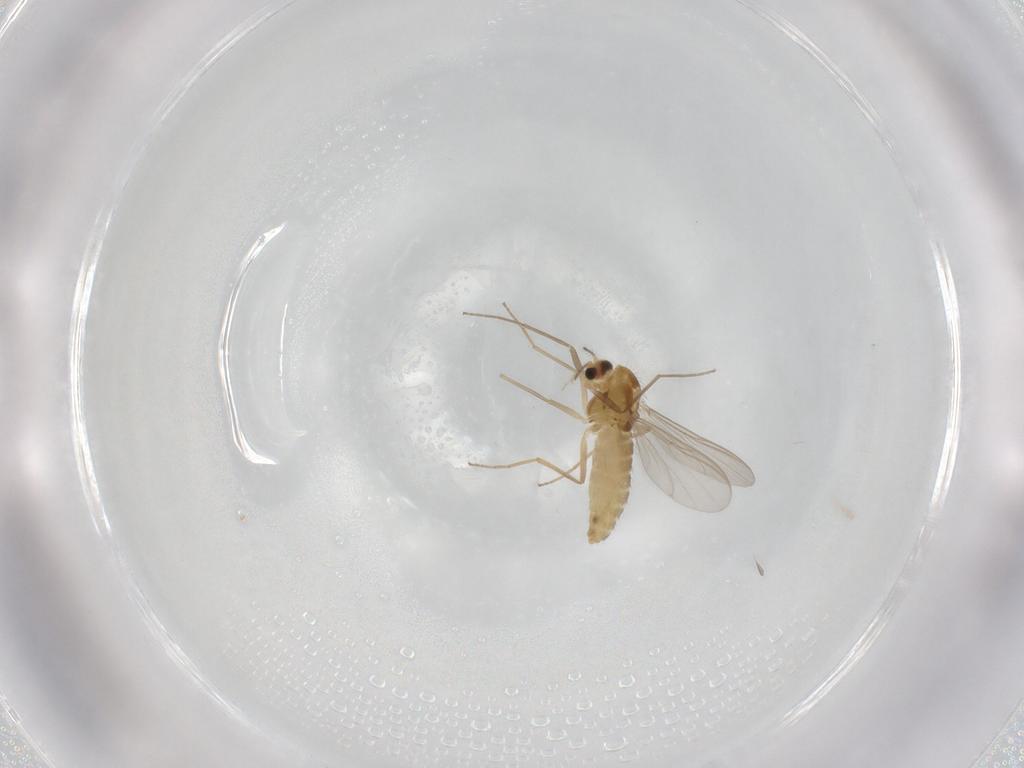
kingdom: Animalia
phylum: Arthropoda
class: Insecta
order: Diptera
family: Chironomidae
